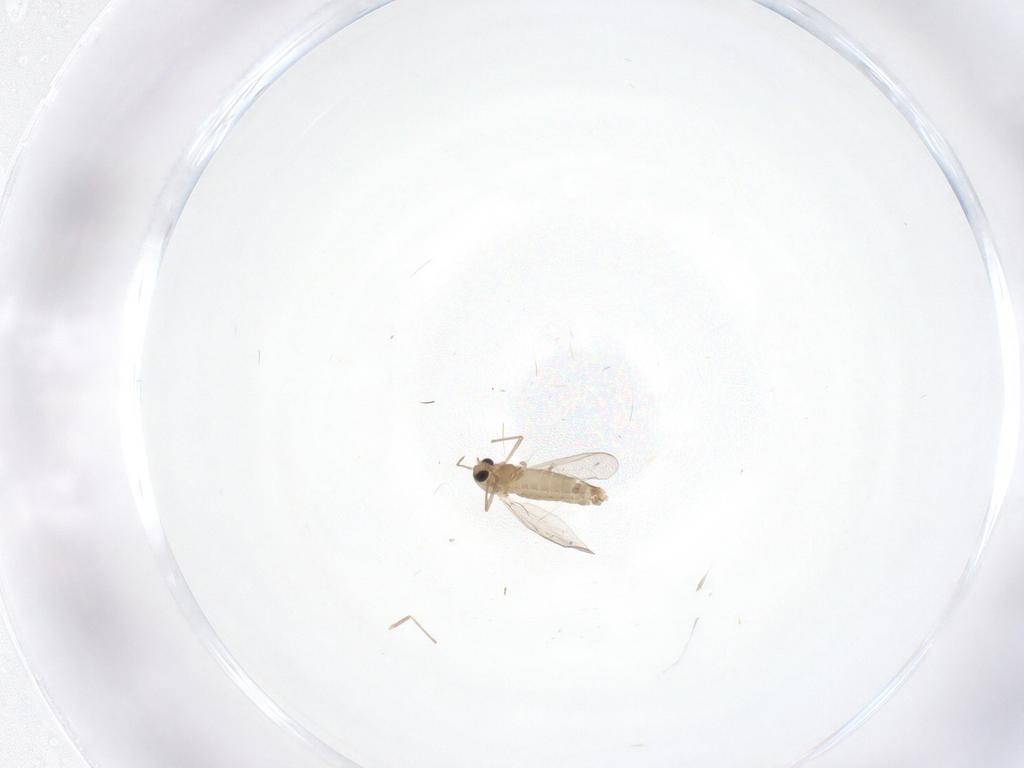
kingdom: Animalia
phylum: Arthropoda
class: Insecta
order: Diptera
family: Chironomidae
